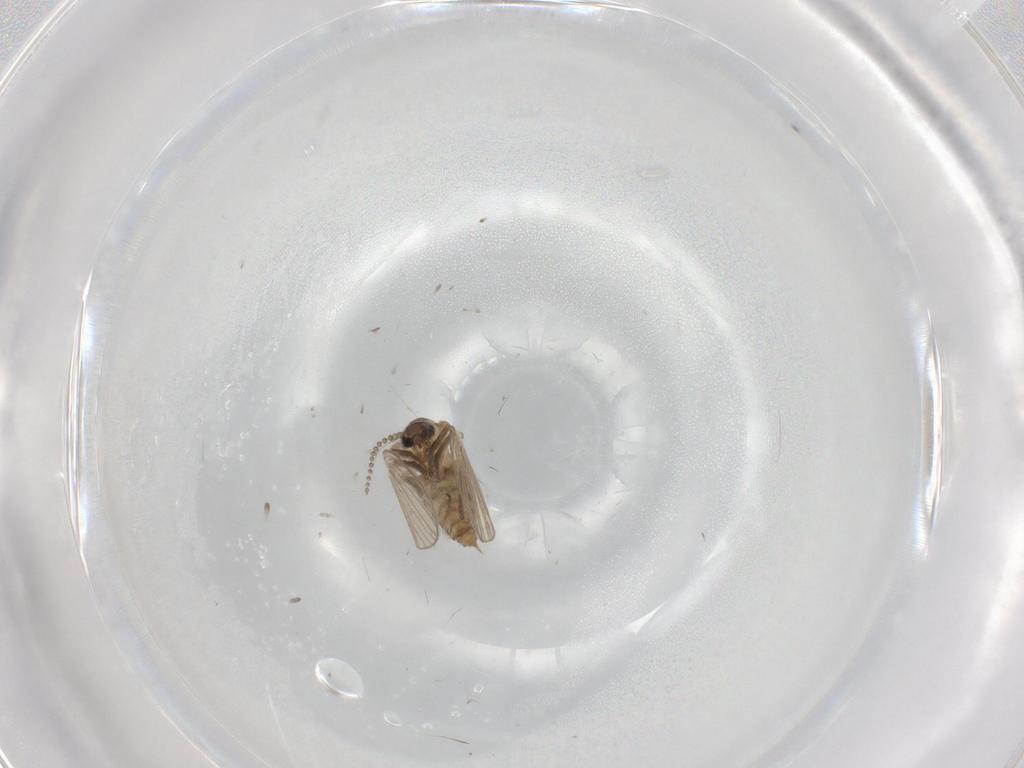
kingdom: Animalia
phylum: Arthropoda
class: Insecta
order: Diptera
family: Psychodidae
